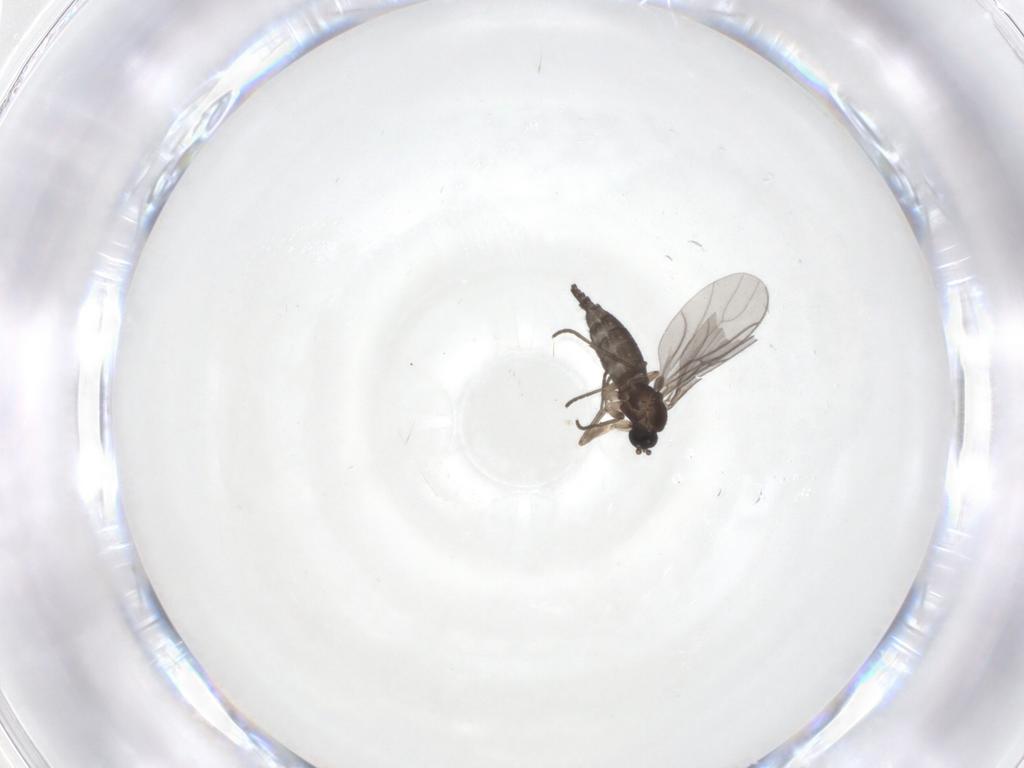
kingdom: Animalia
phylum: Arthropoda
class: Insecta
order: Diptera
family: Sciaridae
